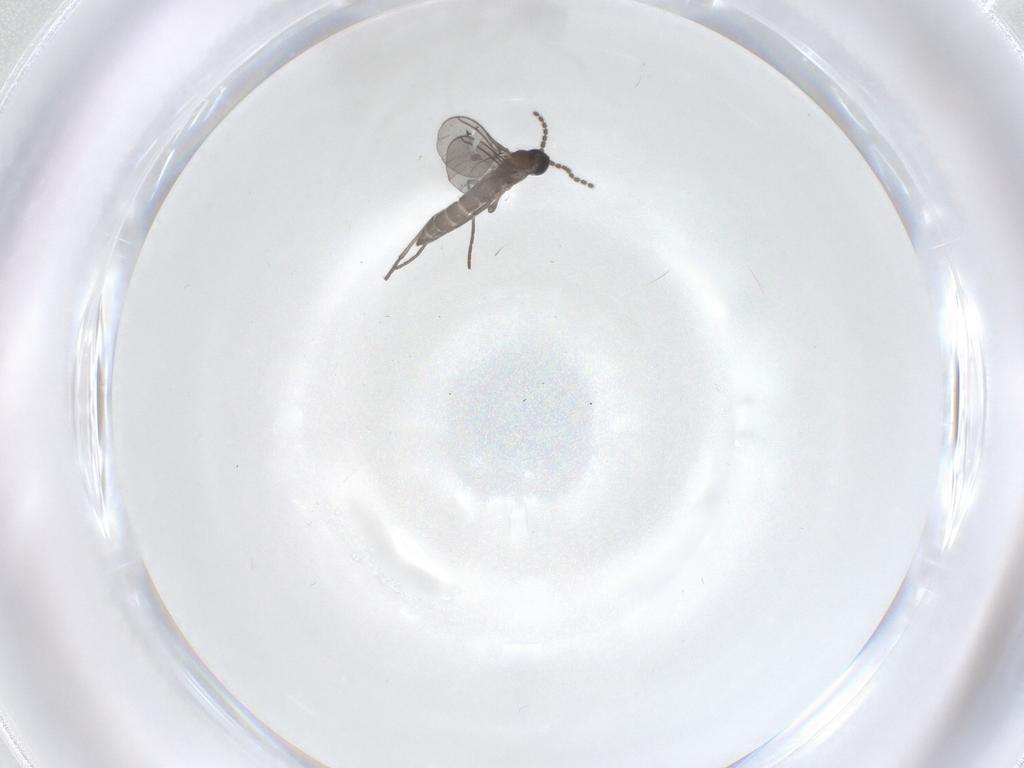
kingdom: Animalia
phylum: Arthropoda
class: Insecta
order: Diptera
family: Sciaridae
